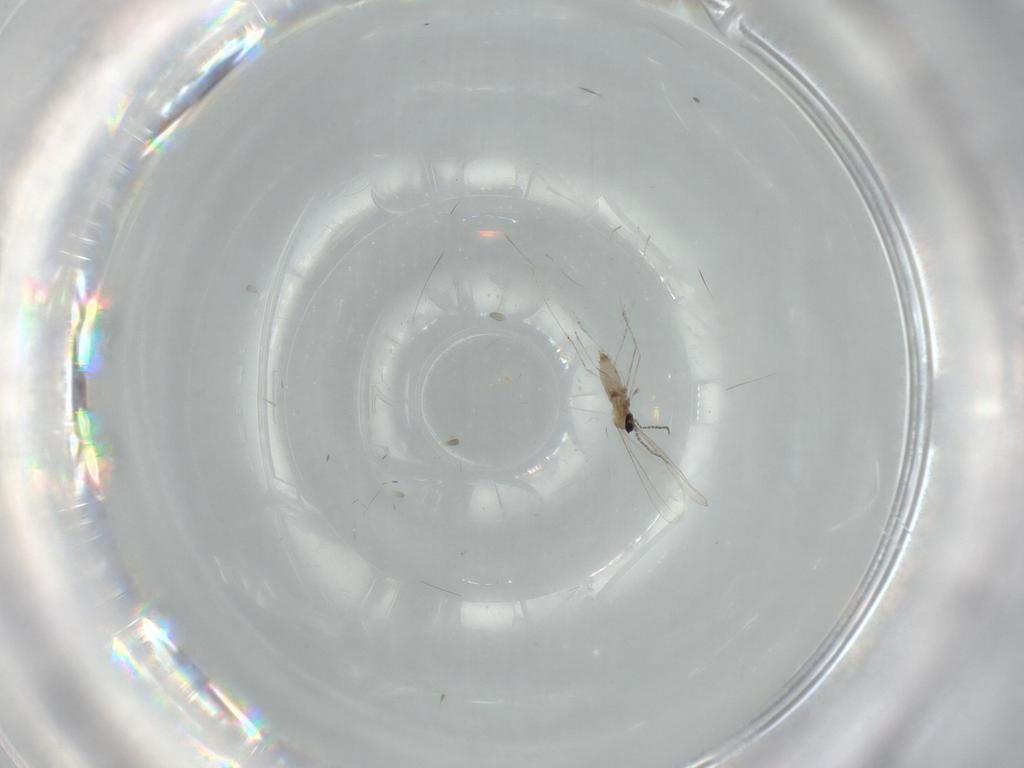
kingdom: Animalia
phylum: Arthropoda
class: Insecta
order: Diptera
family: Cecidomyiidae
